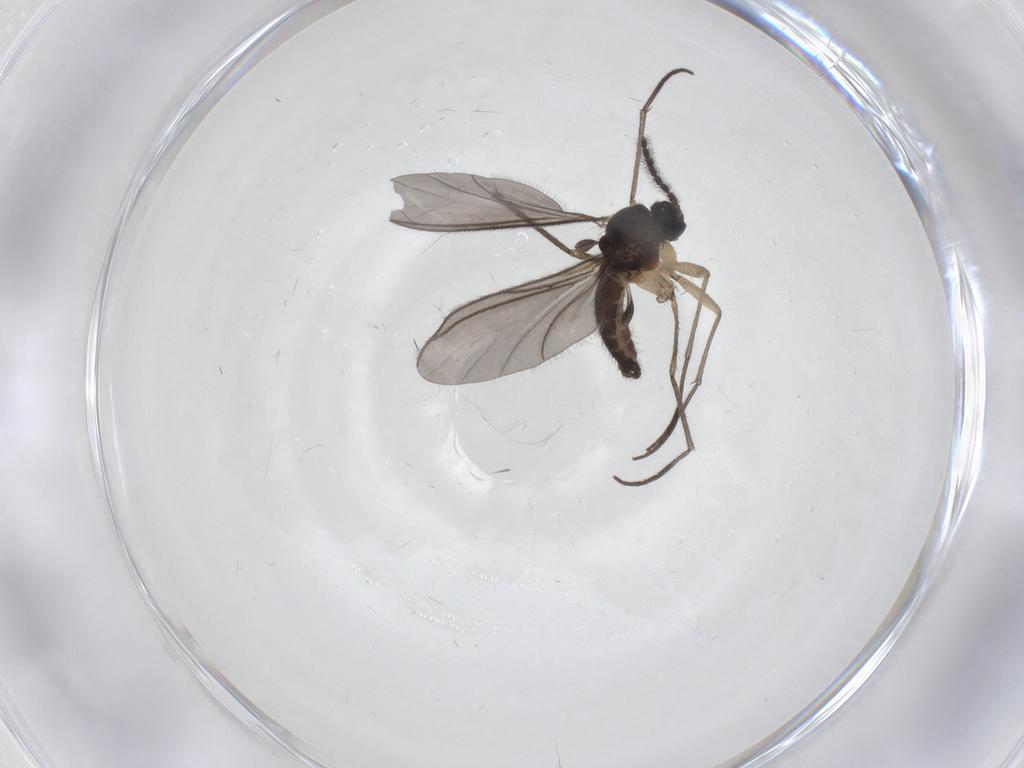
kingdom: Animalia
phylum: Arthropoda
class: Insecta
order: Diptera
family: Sciaridae
